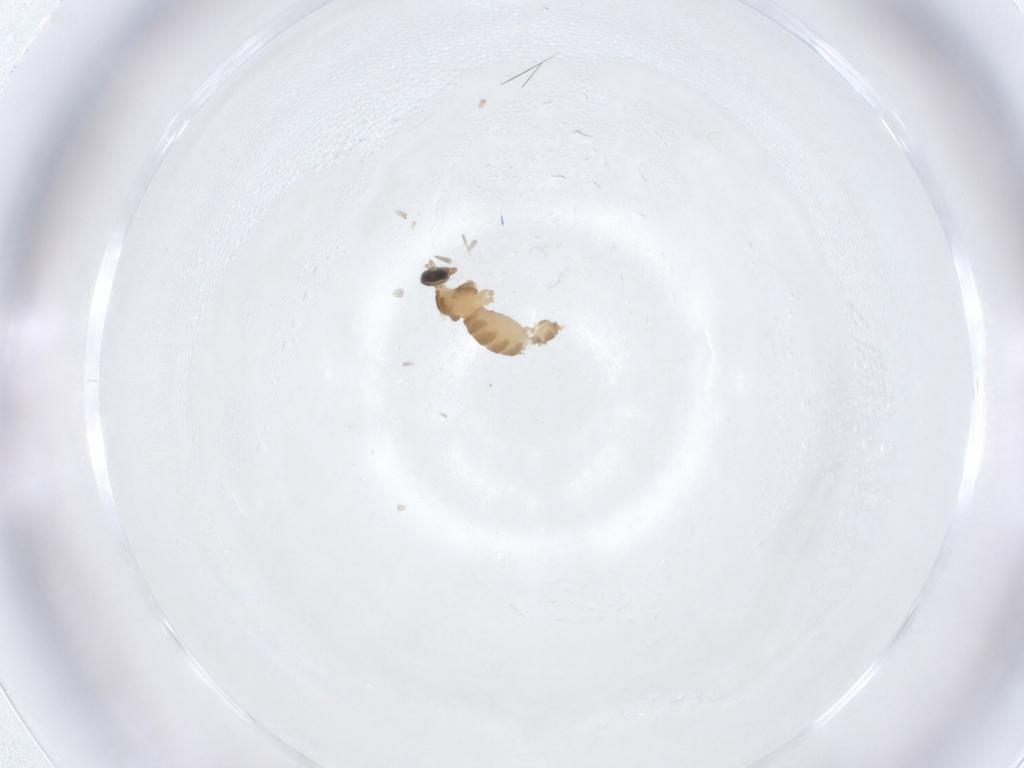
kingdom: Animalia
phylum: Arthropoda
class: Insecta
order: Diptera
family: Cecidomyiidae
